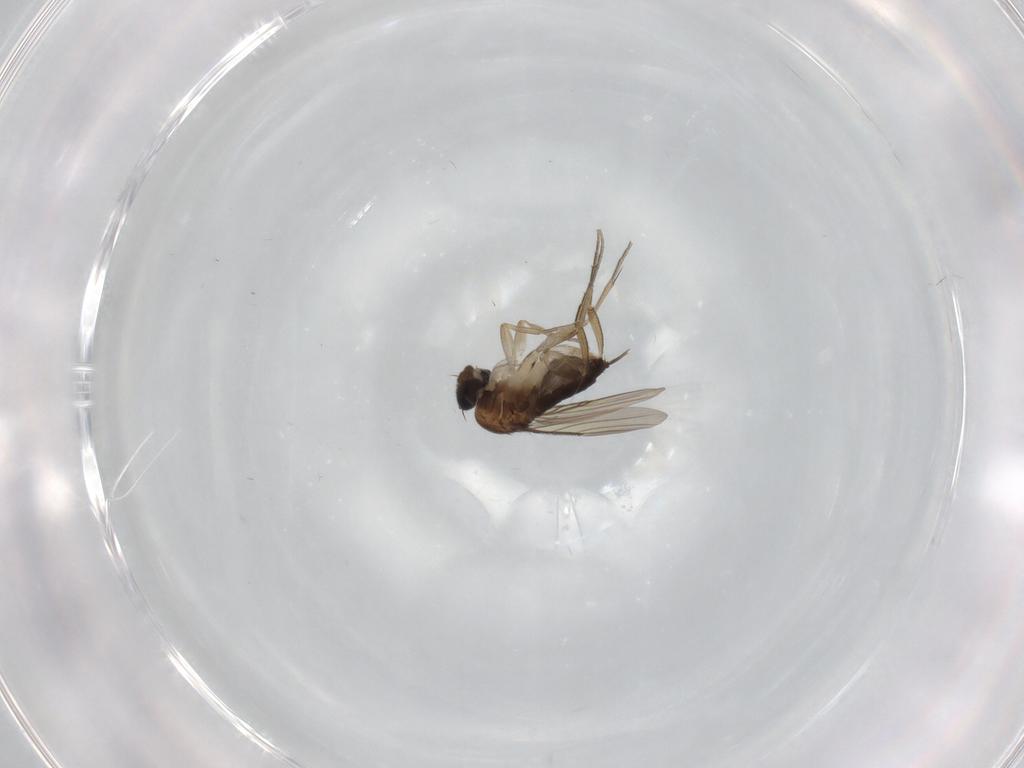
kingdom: Animalia
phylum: Arthropoda
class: Insecta
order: Diptera
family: Phoridae
